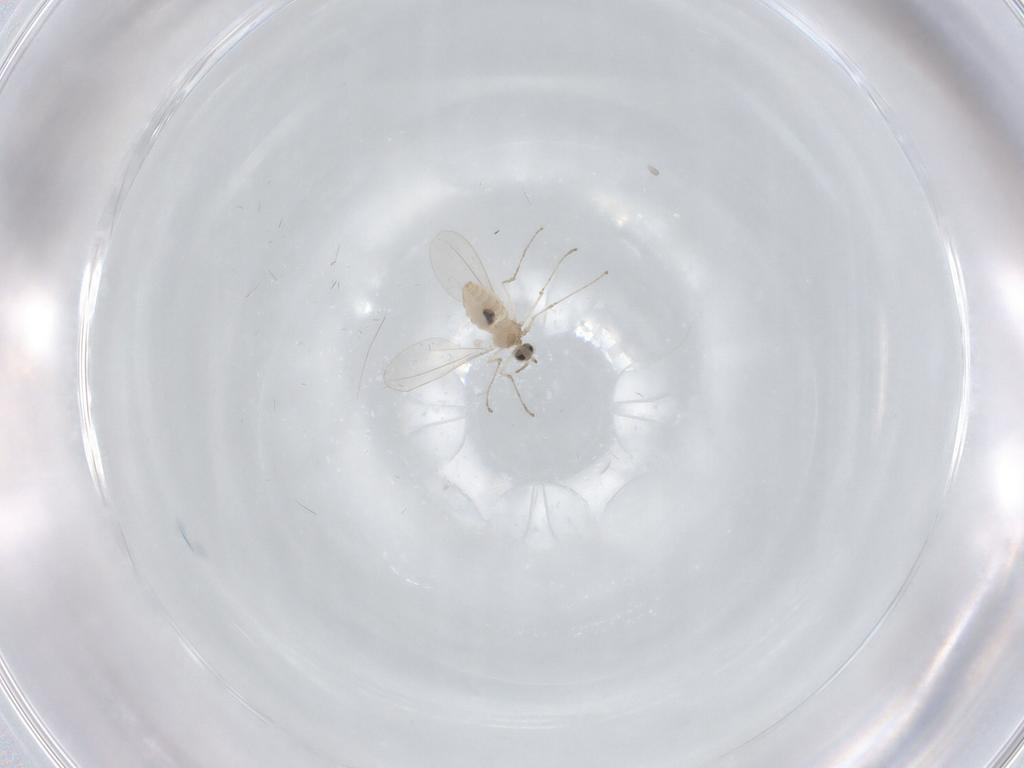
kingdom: Animalia
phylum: Arthropoda
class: Insecta
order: Diptera
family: Cecidomyiidae
